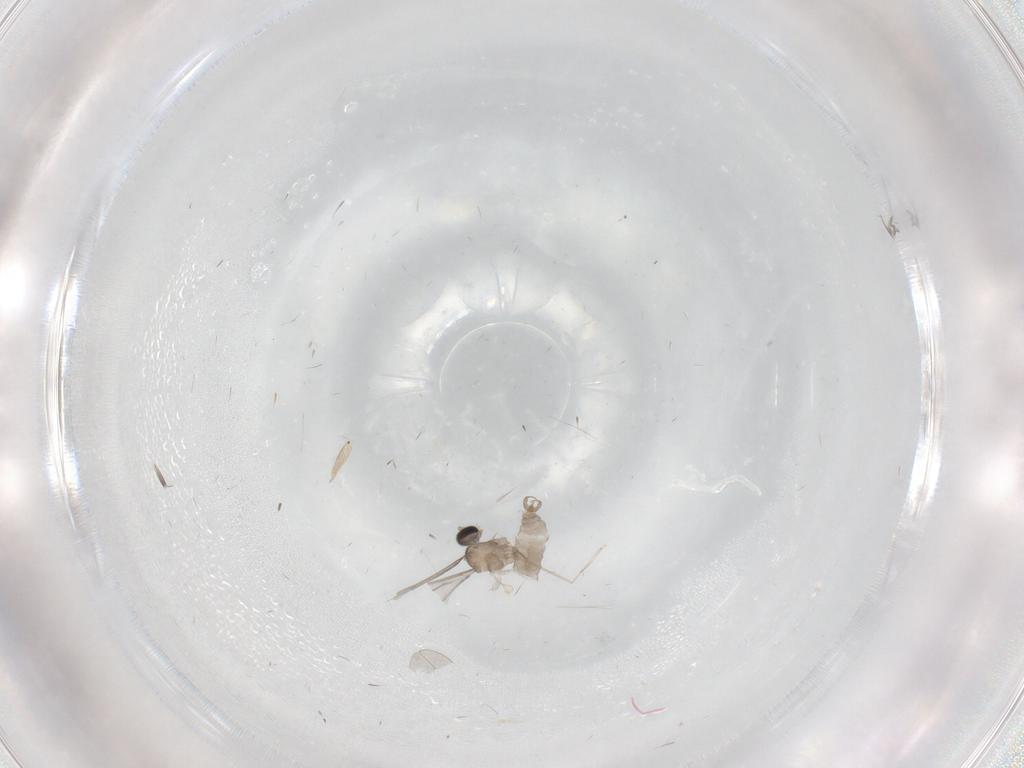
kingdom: Animalia
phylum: Arthropoda
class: Insecta
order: Diptera
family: Cecidomyiidae
